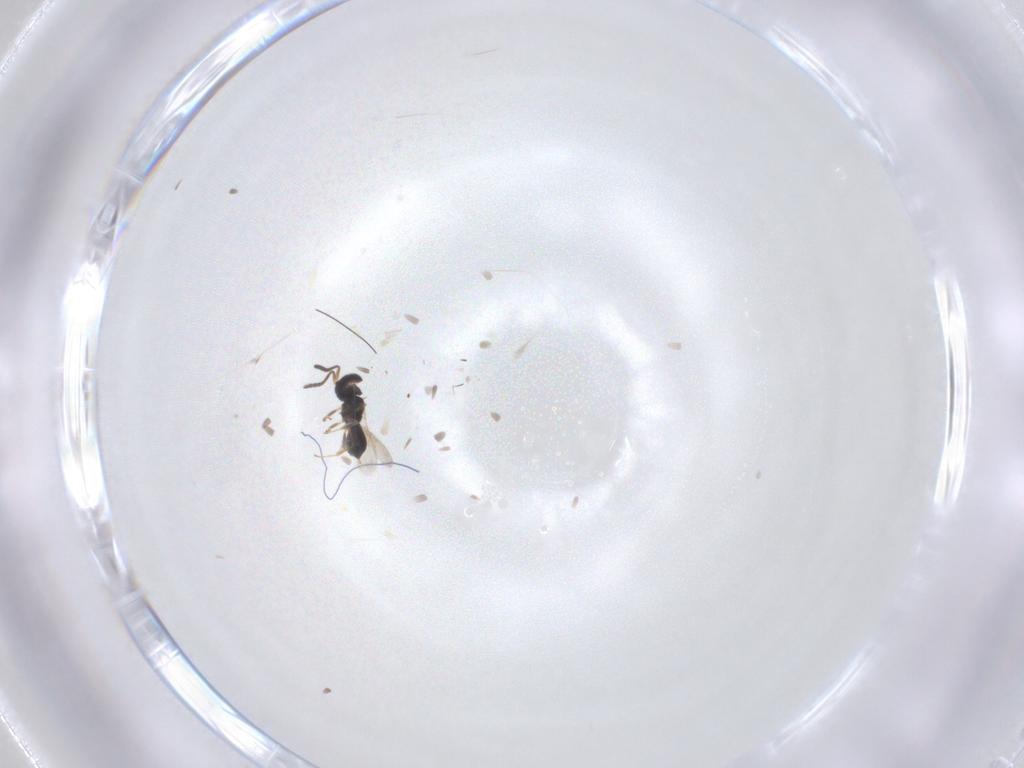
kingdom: Animalia
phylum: Arthropoda
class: Insecta
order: Hymenoptera
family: Scelionidae
